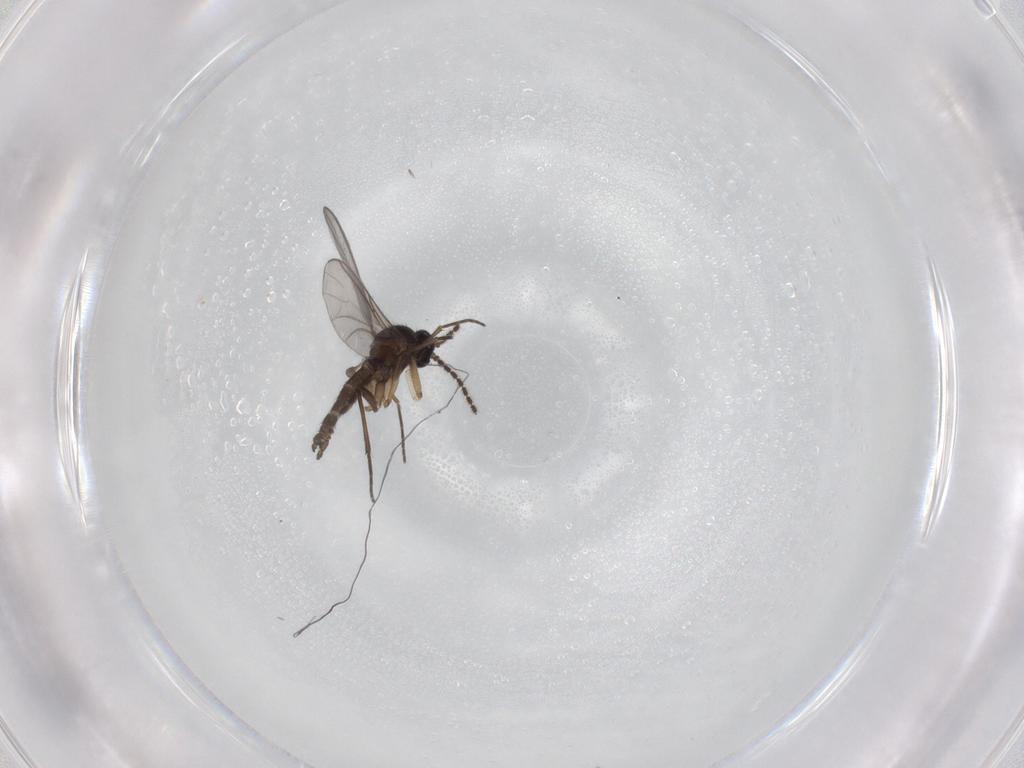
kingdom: Animalia
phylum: Arthropoda
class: Insecta
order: Diptera
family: Sciaridae
